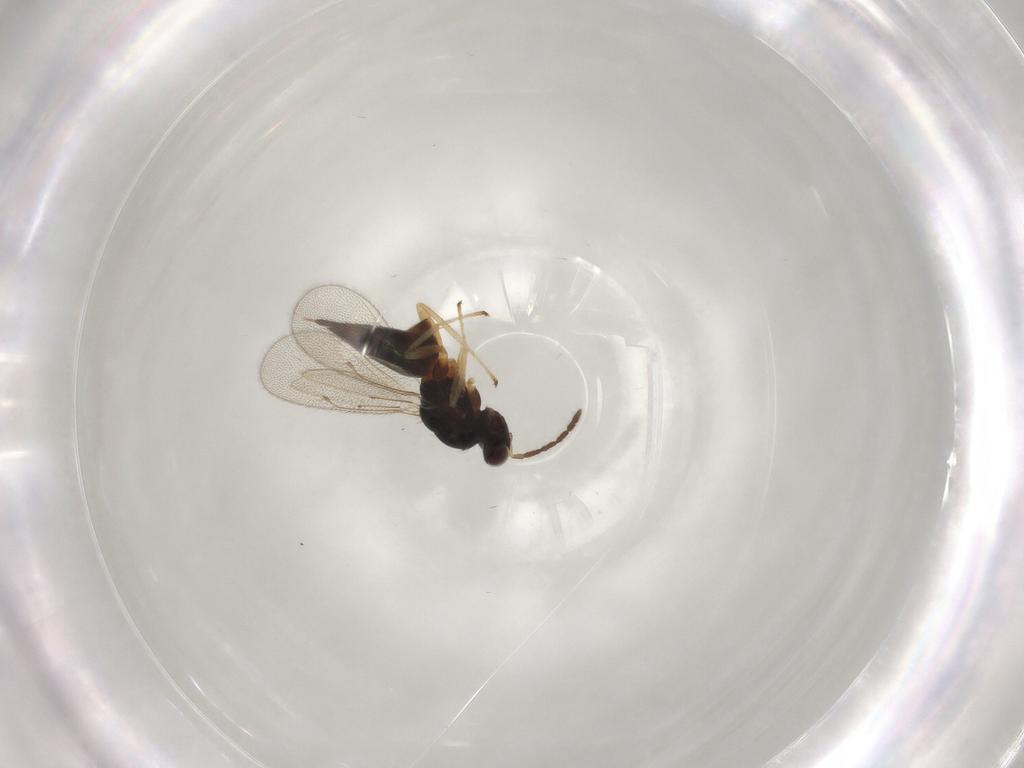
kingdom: Animalia
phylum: Arthropoda
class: Insecta
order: Hymenoptera
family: Eulophidae
